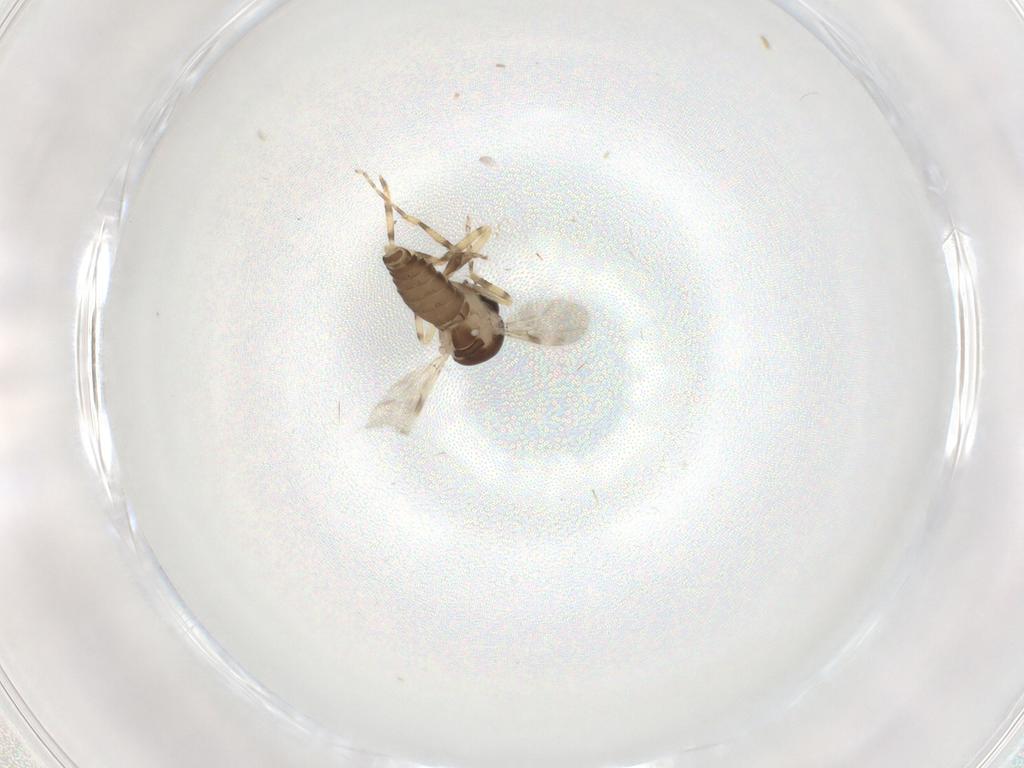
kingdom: Animalia
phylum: Arthropoda
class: Insecta
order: Diptera
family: Ceratopogonidae
